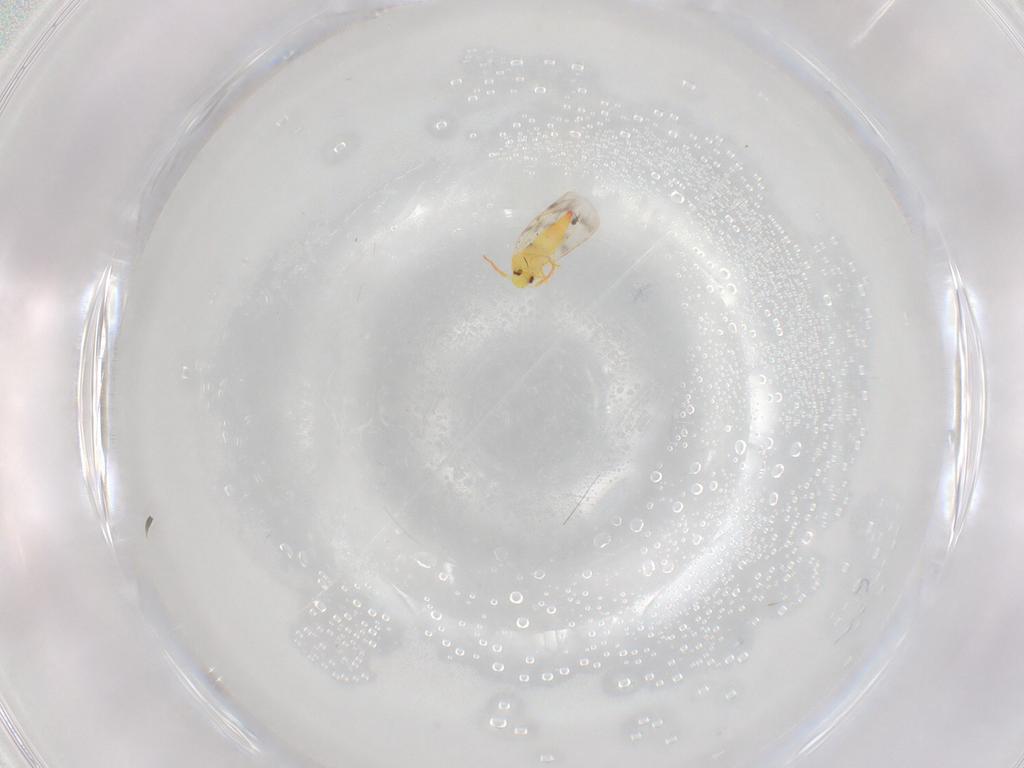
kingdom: Animalia
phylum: Arthropoda
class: Insecta
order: Hemiptera
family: Aleyrodidae
